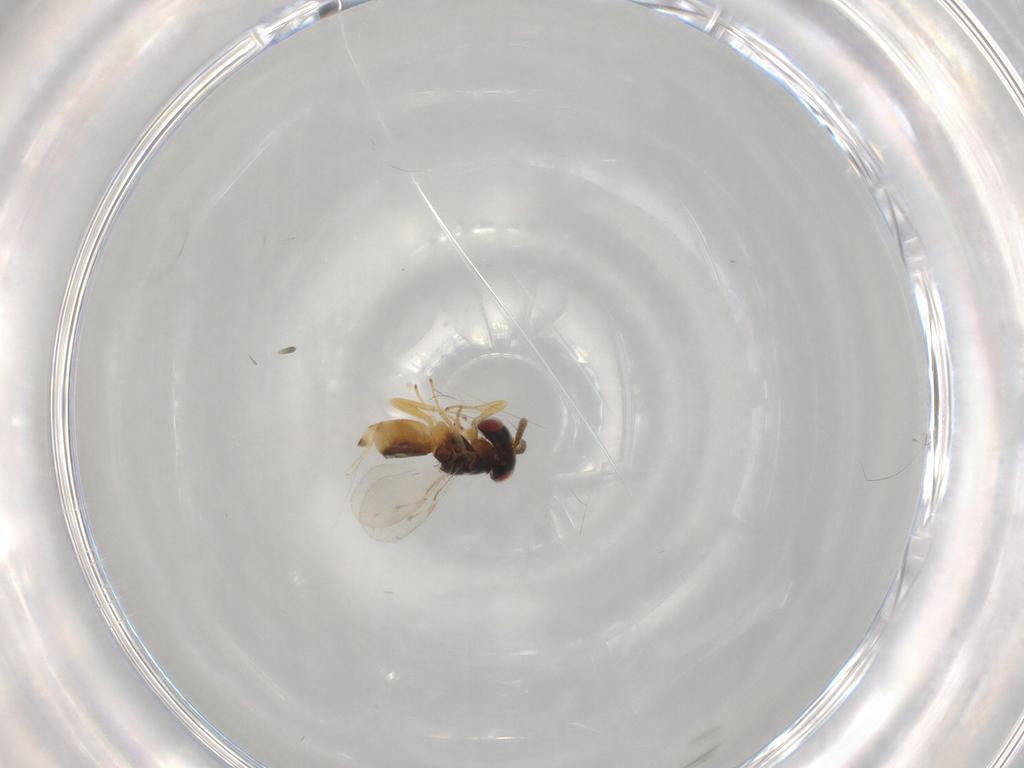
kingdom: Animalia
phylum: Arthropoda
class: Insecta
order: Hymenoptera
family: Pteromalidae
